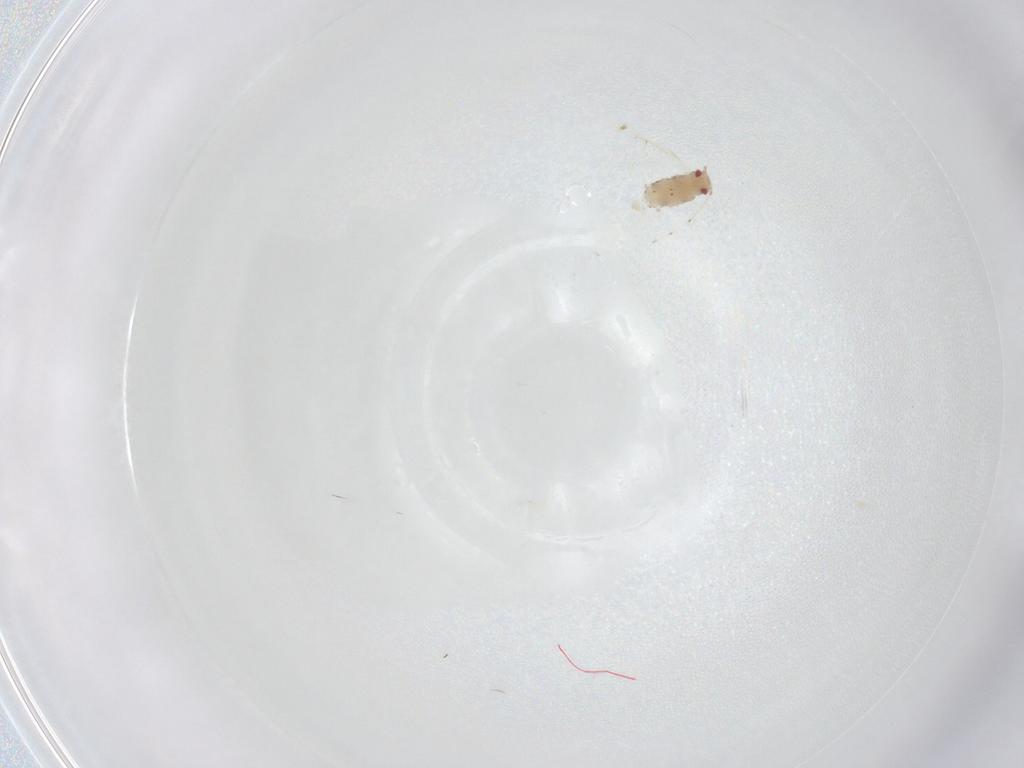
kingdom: Animalia
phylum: Arthropoda
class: Insecta
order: Hemiptera
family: Aphididae
